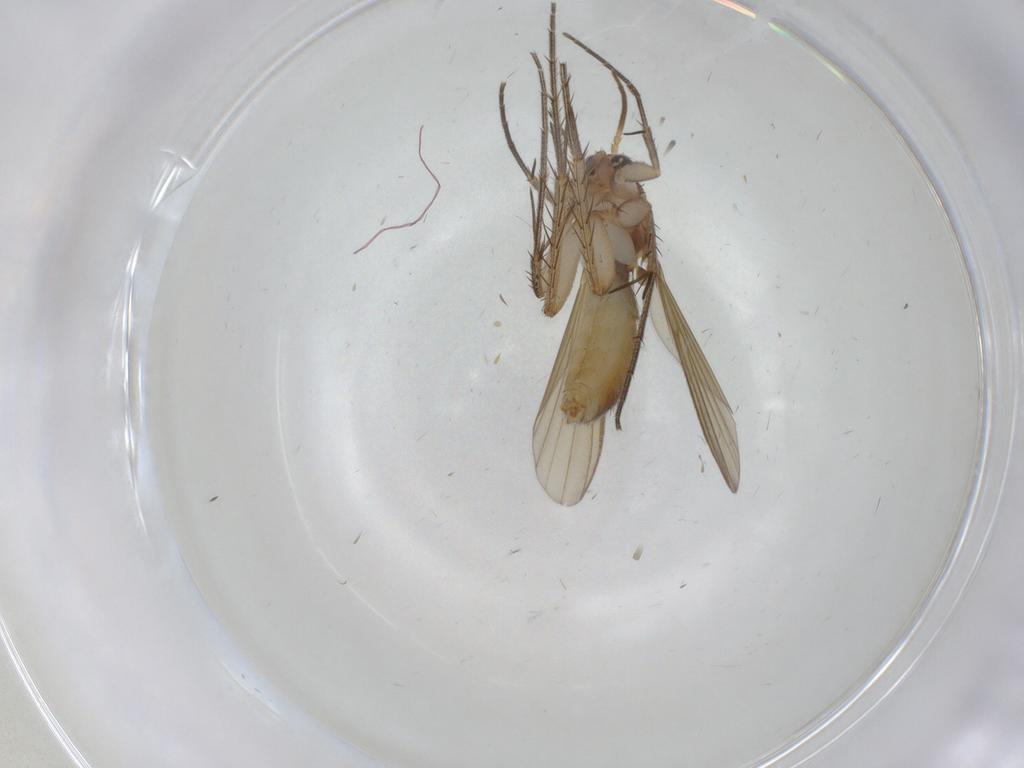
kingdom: Animalia
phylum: Arthropoda
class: Insecta
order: Diptera
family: Mycetophilidae
